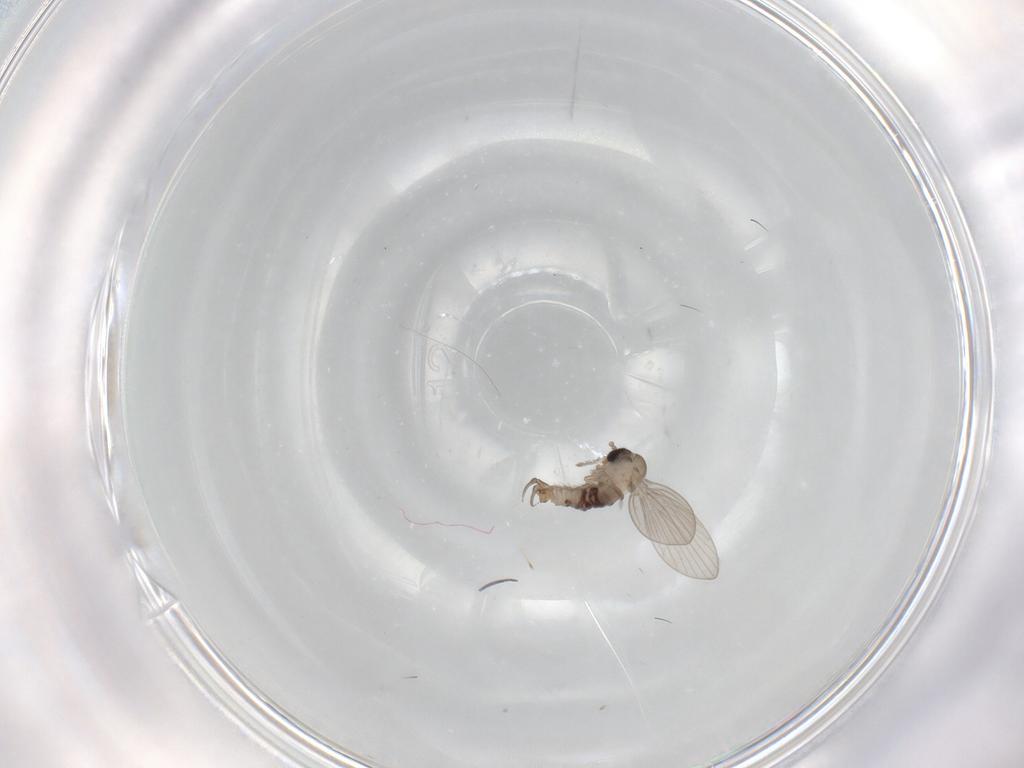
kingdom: Animalia
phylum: Arthropoda
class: Insecta
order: Diptera
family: Psychodidae
